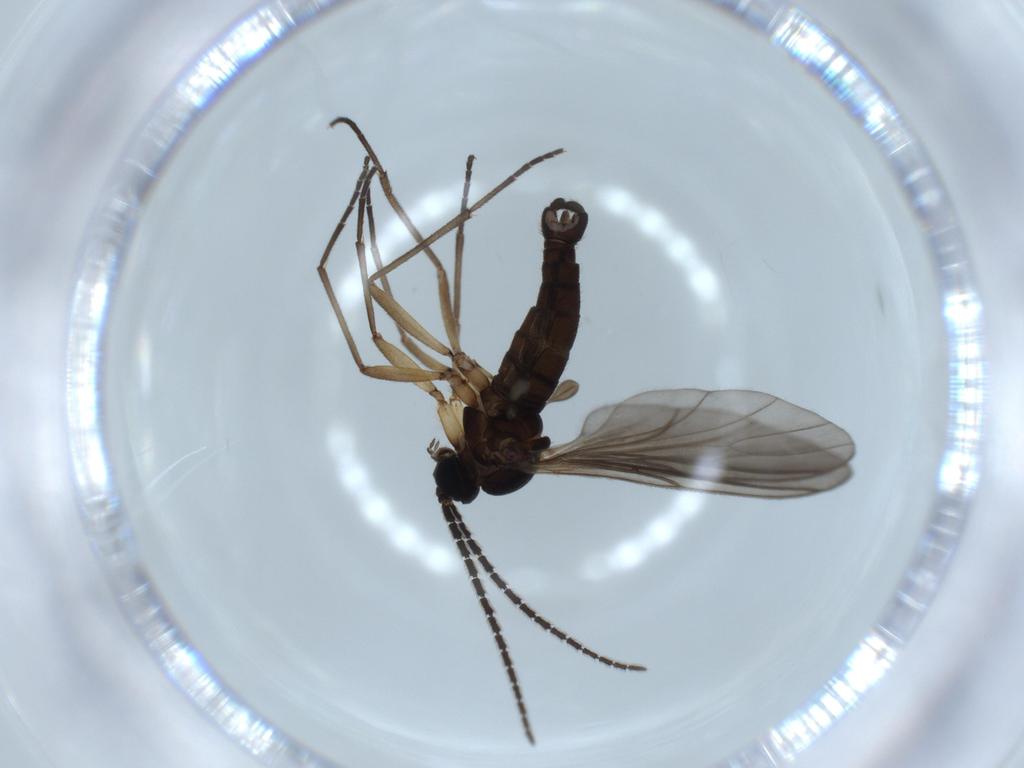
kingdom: Animalia
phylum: Arthropoda
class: Insecta
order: Diptera
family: Sciaridae
